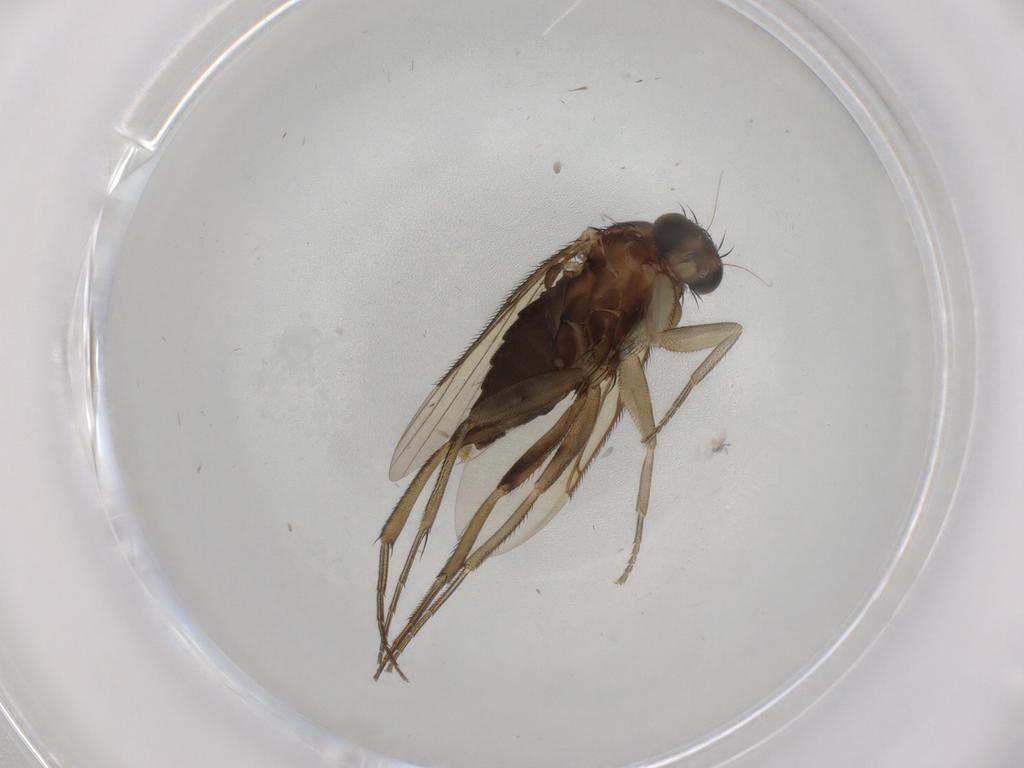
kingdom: Animalia
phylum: Arthropoda
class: Insecta
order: Diptera
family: Phoridae
